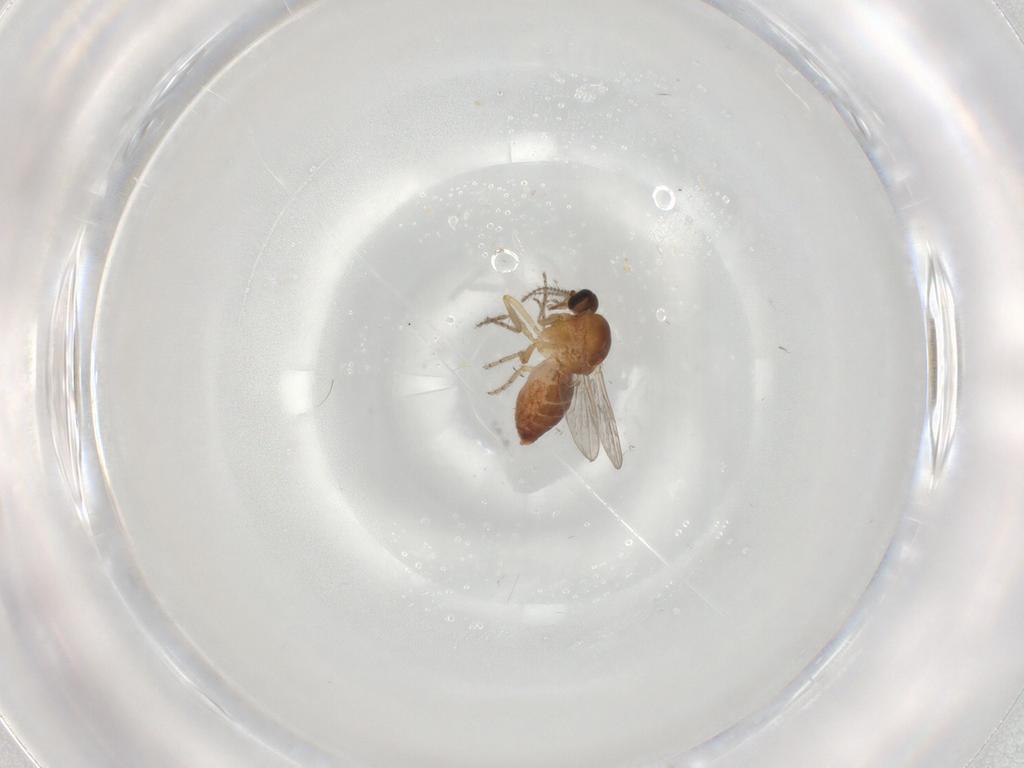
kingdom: Animalia
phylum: Arthropoda
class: Insecta
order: Diptera
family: Ceratopogonidae
